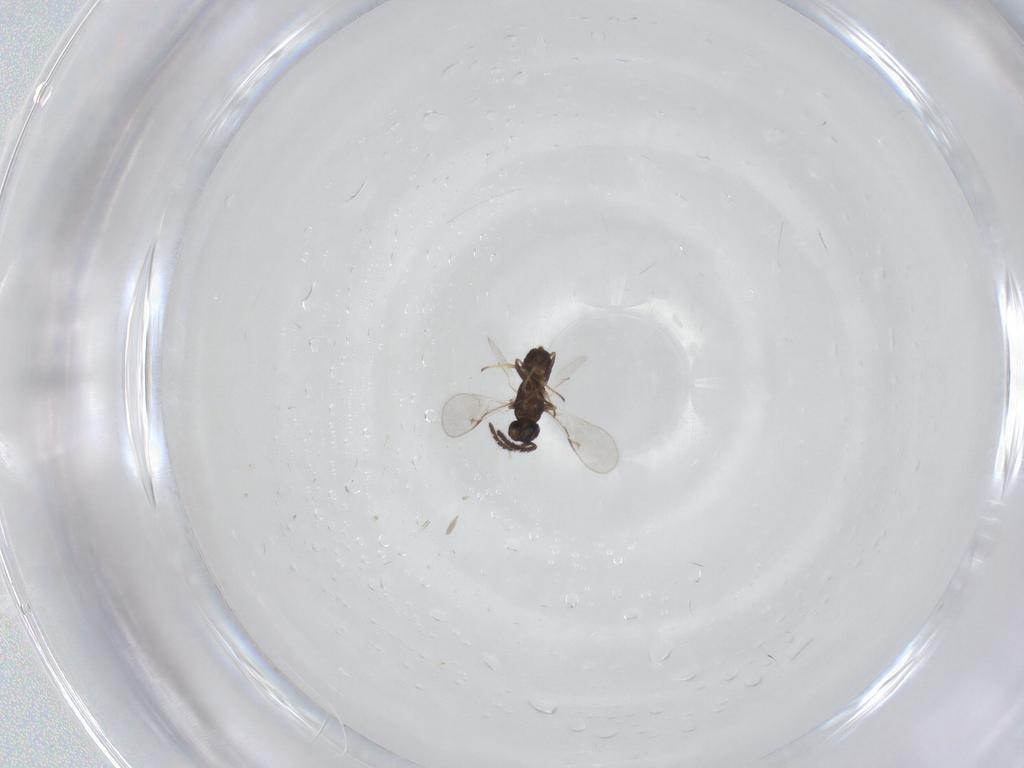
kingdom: Animalia
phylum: Arthropoda
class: Insecta
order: Hymenoptera
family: Encyrtidae
